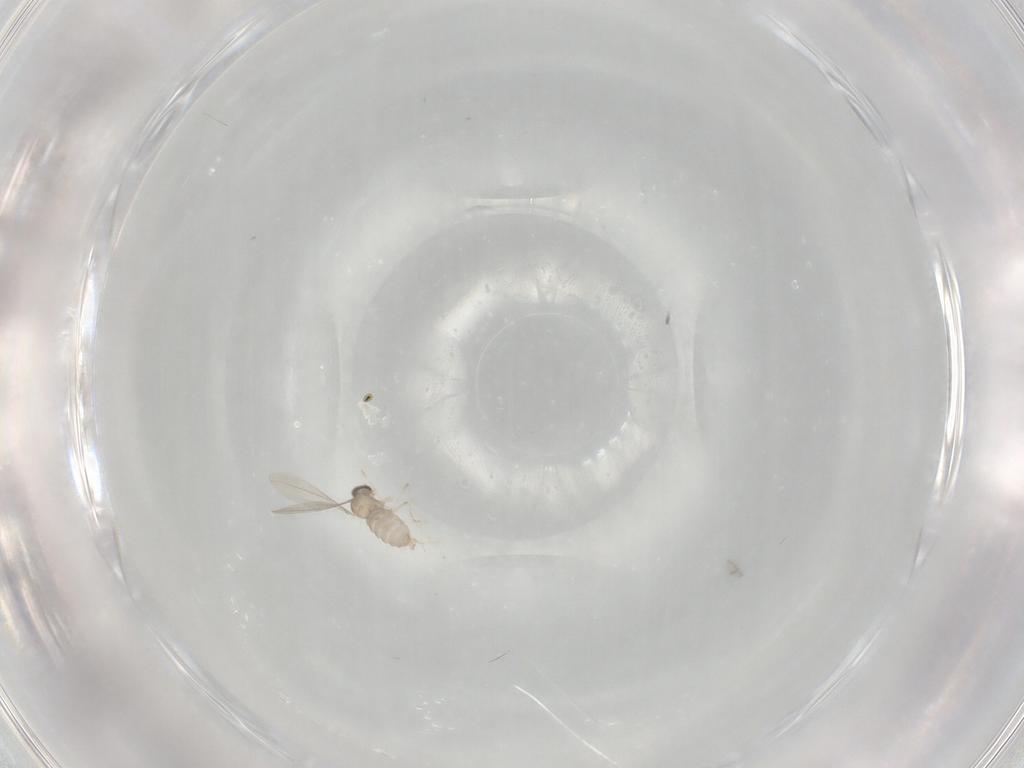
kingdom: Animalia
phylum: Arthropoda
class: Insecta
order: Diptera
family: Cecidomyiidae
